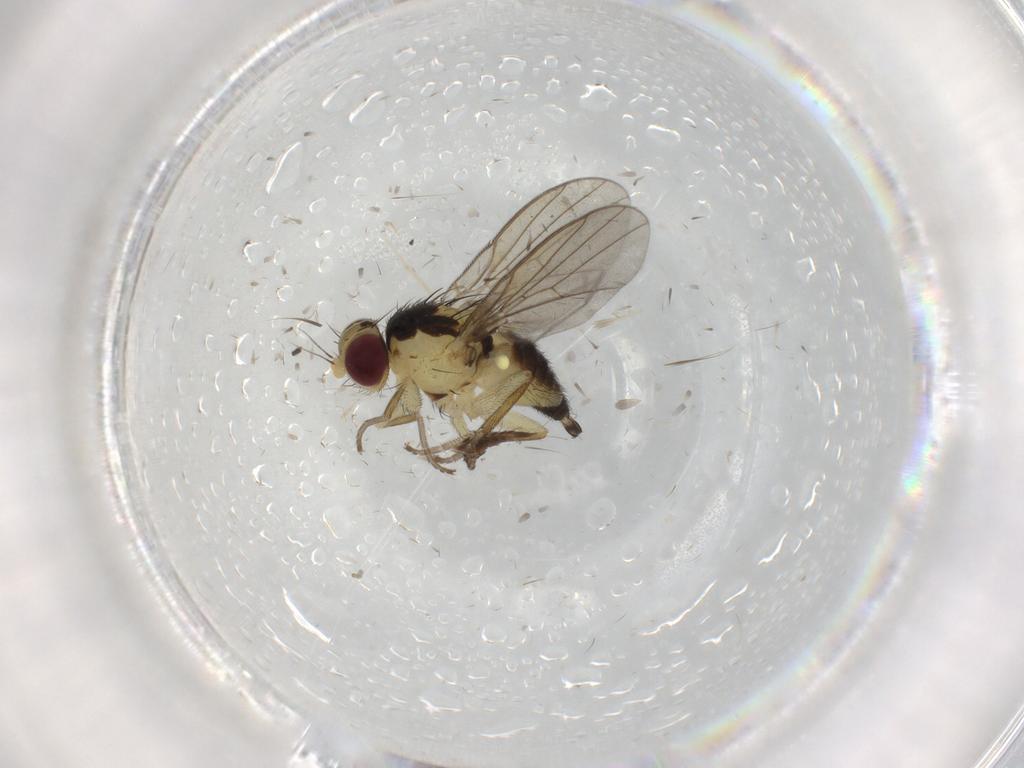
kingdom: Animalia
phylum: Arthropoda
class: Insecta
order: Diptera
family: Agromyzidae
